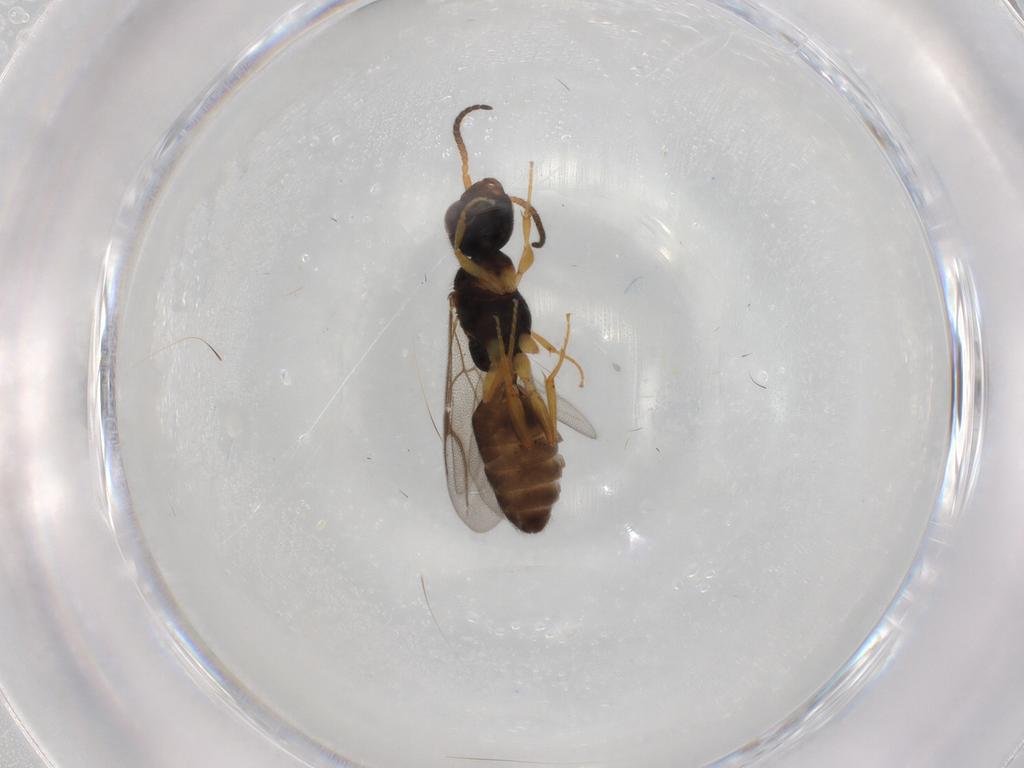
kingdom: Animalia
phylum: Arthropoda
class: Insecta
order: Hymenoptera
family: Bethylidae
